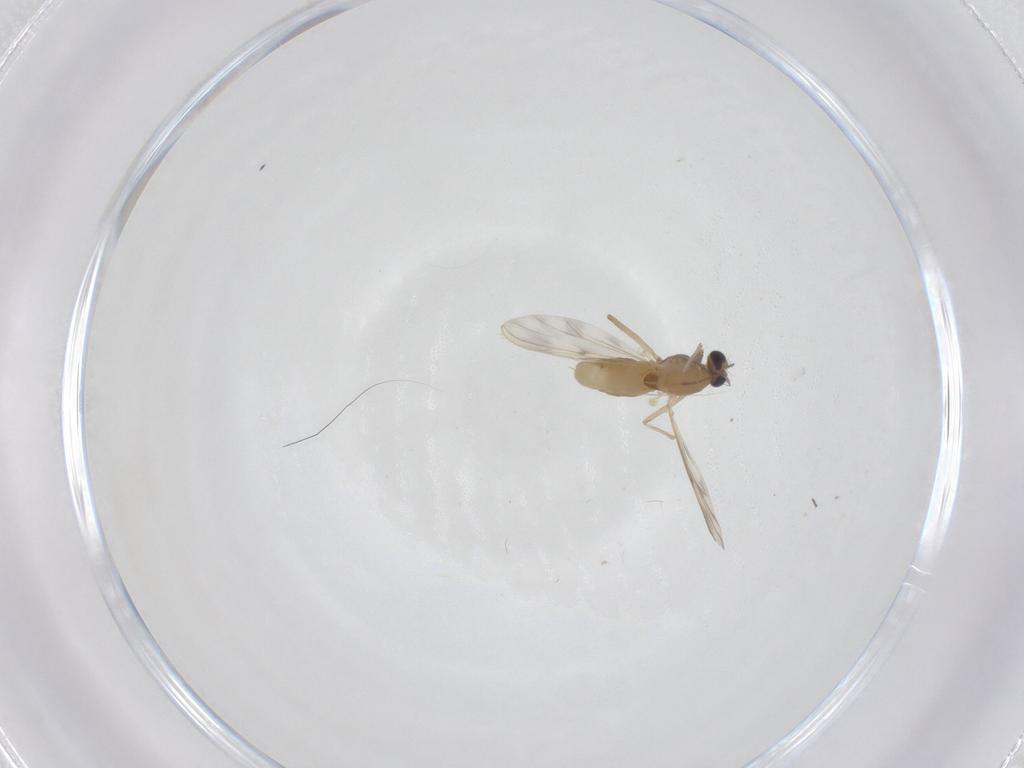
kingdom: Animalia
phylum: Arthropoda
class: Insecta
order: Diptera
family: Chironomidae
